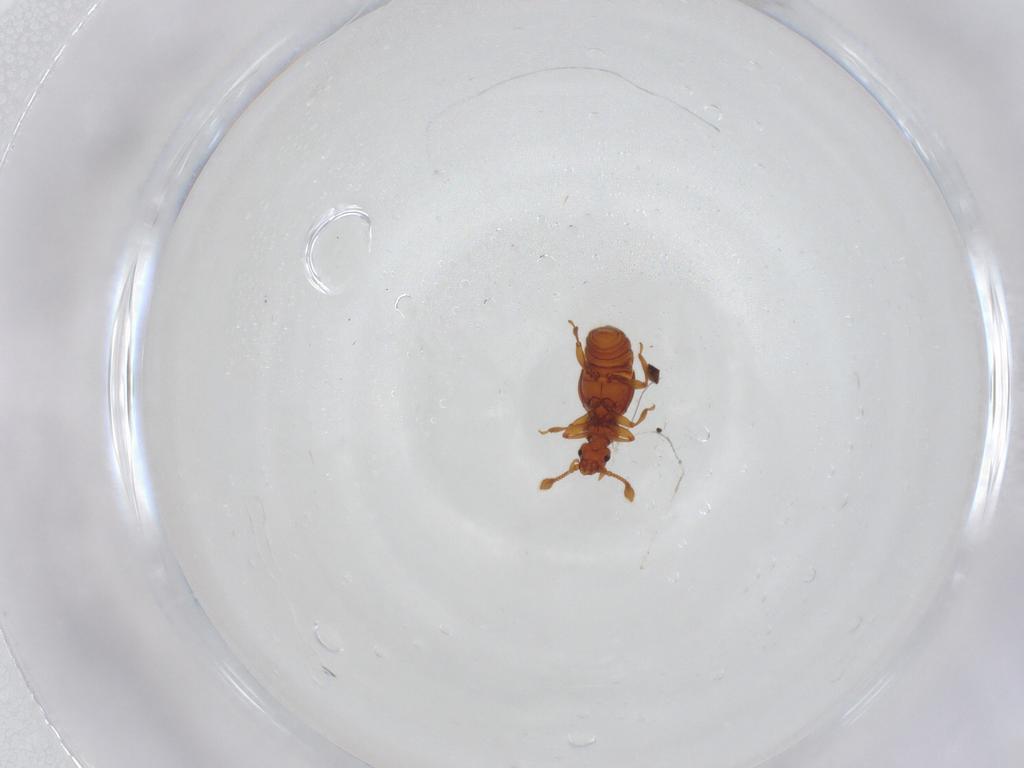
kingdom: Animalia
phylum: Arthropoda
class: Insecta
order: Coleoptera
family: Staphylinidae
